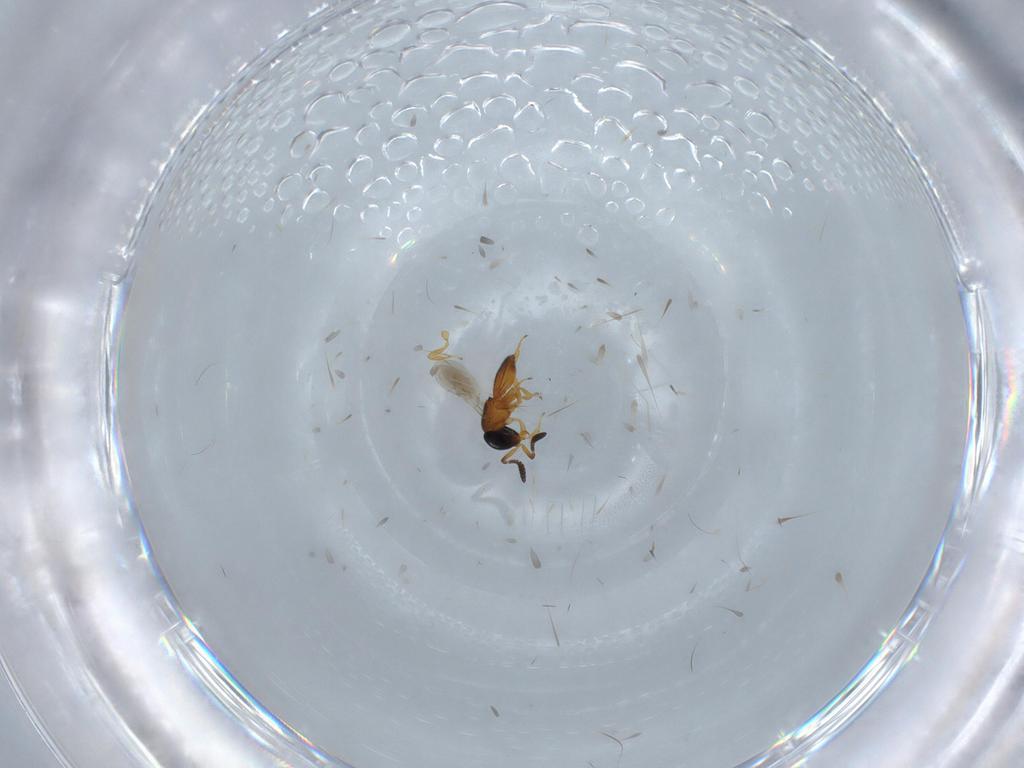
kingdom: Animalia
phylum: Arthropoda
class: Insecta
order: Hymenoptera
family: Scelionidae
